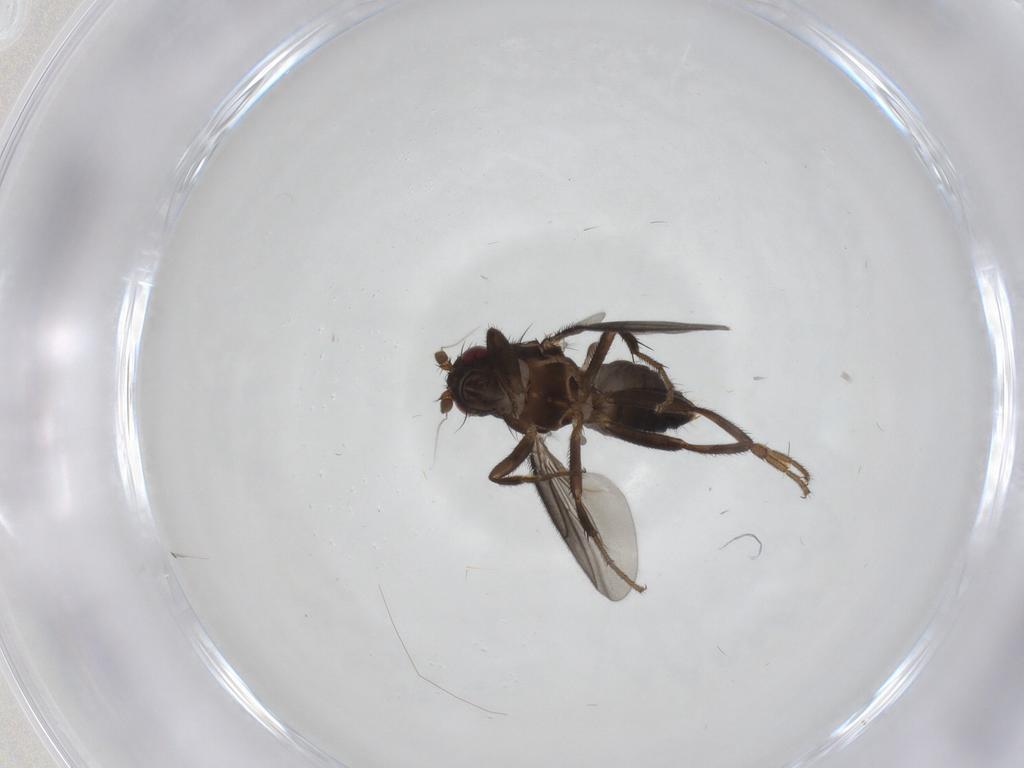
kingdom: Animalia
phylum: Arthropoda
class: Insecta
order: Diptera
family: Sphaeroceridae
